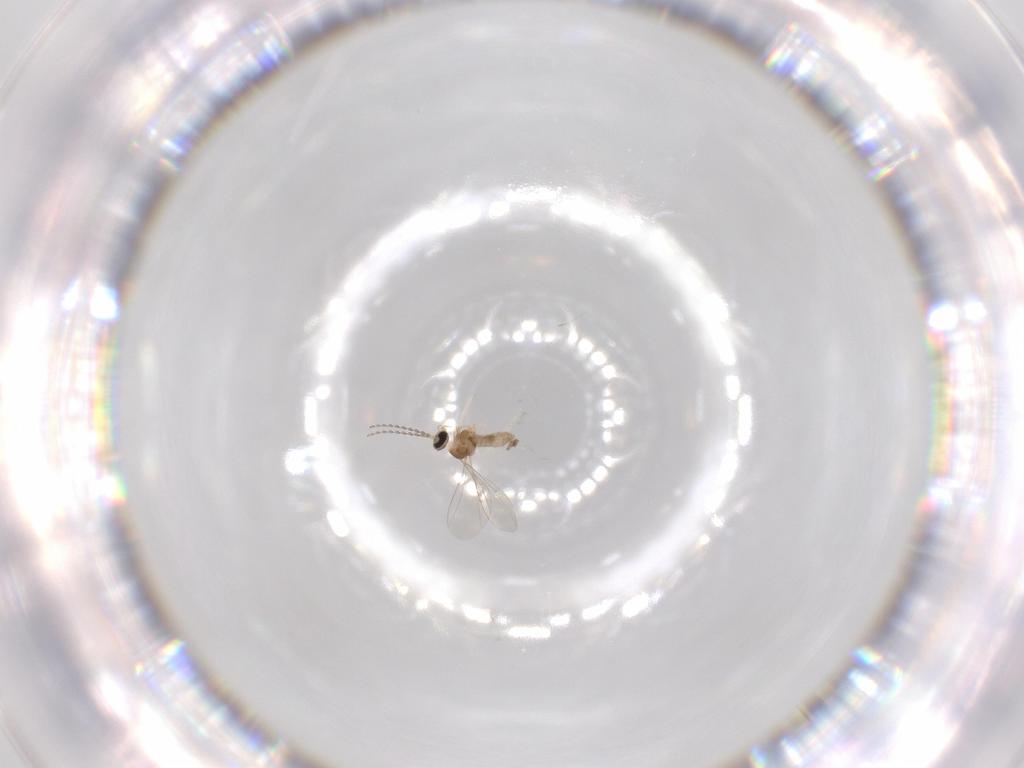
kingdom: Animalia
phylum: Arthropoda
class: Insecta
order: Diptera
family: Cecidomyiidae
